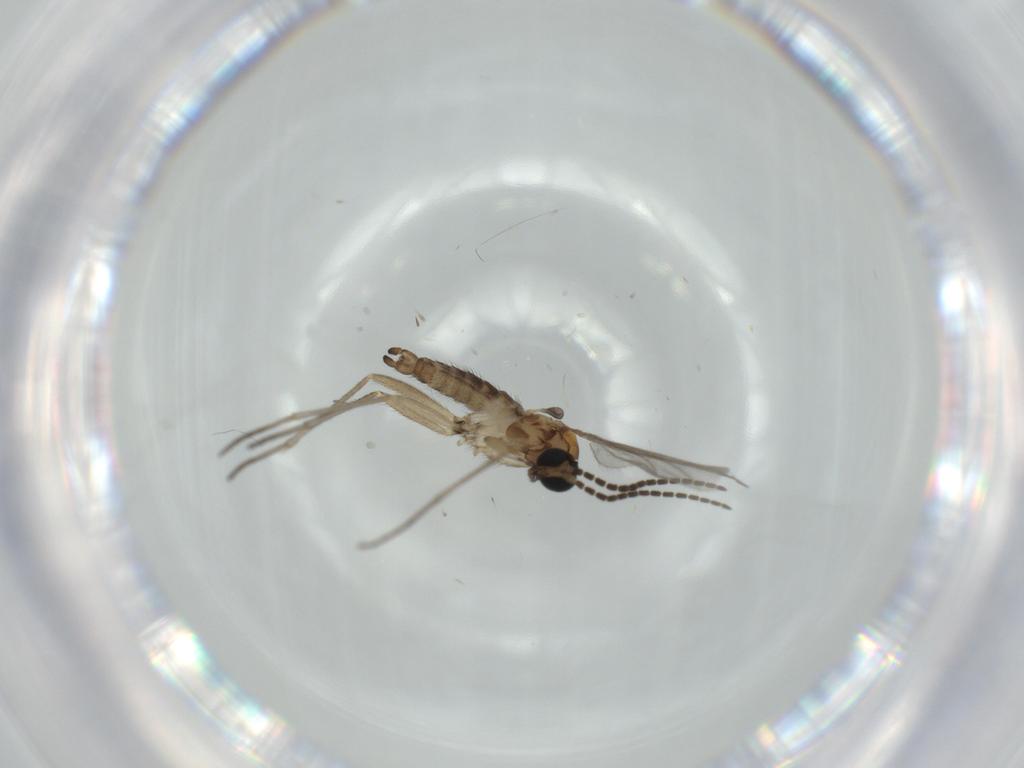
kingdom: Animalia
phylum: Arthropoda
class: Insecta
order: Diptera
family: Sciaridae
